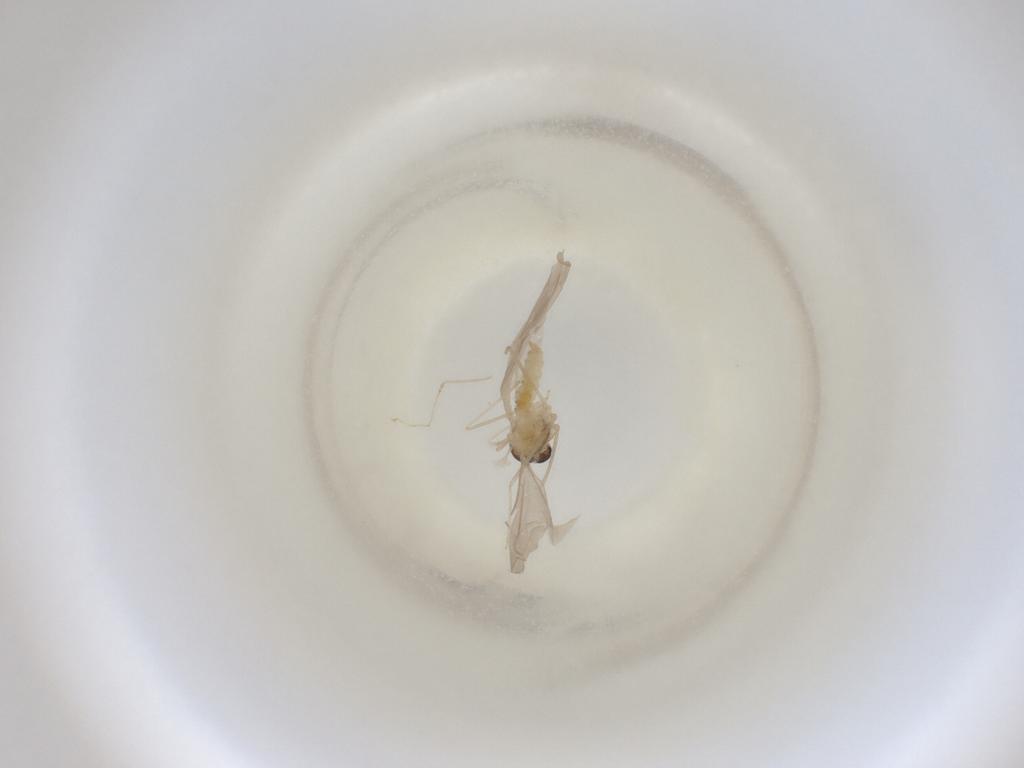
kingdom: Animalia
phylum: Arthropoda
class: Insecta
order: Diptera
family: Cecidomyiidae
